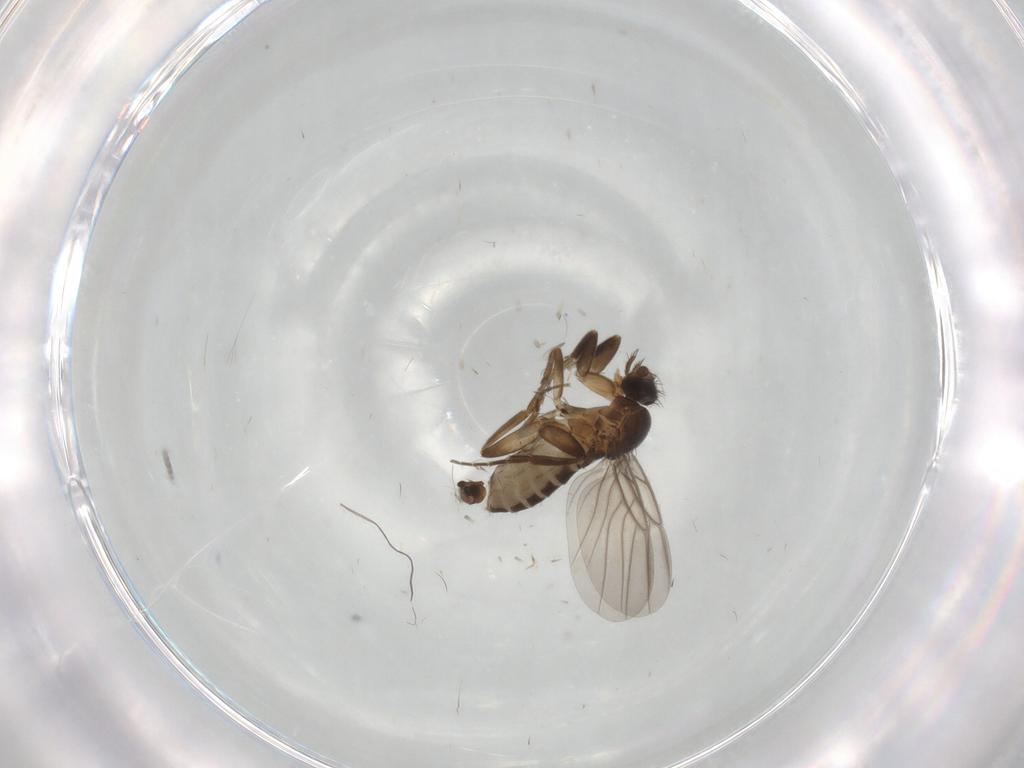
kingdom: Animalia
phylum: Arthropoda
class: Insecta
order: Diptera
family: Phoridae
